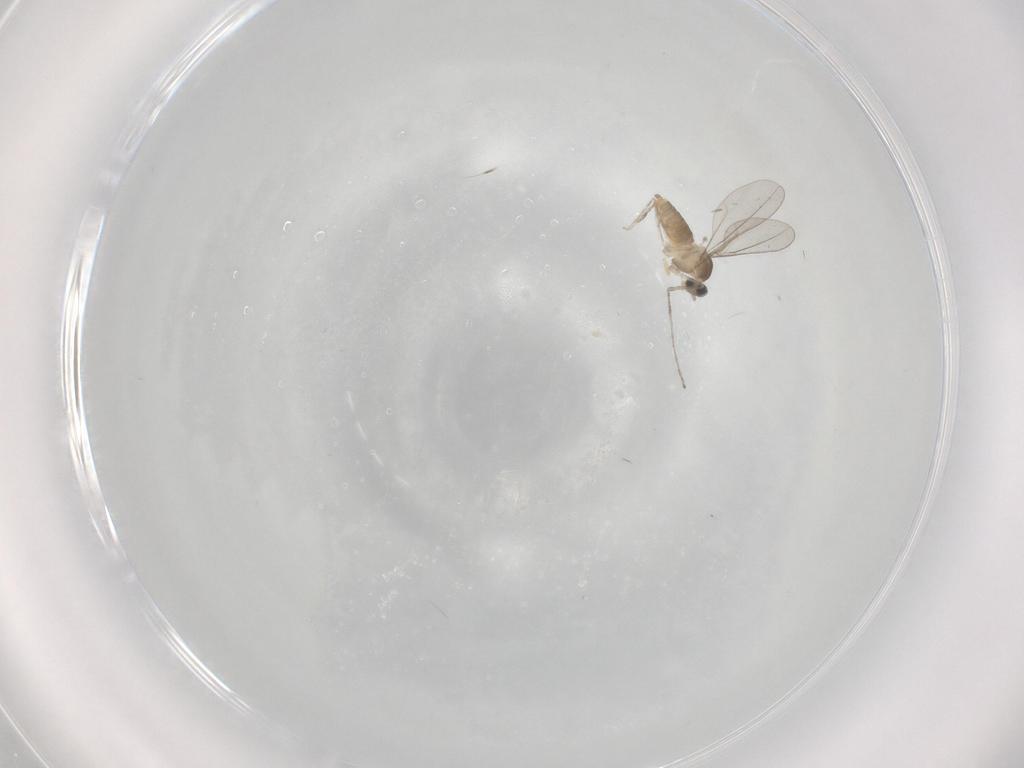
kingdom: Animalia
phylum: Arthropoda
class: Insecta
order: Diptera
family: Cecidomyiidae
